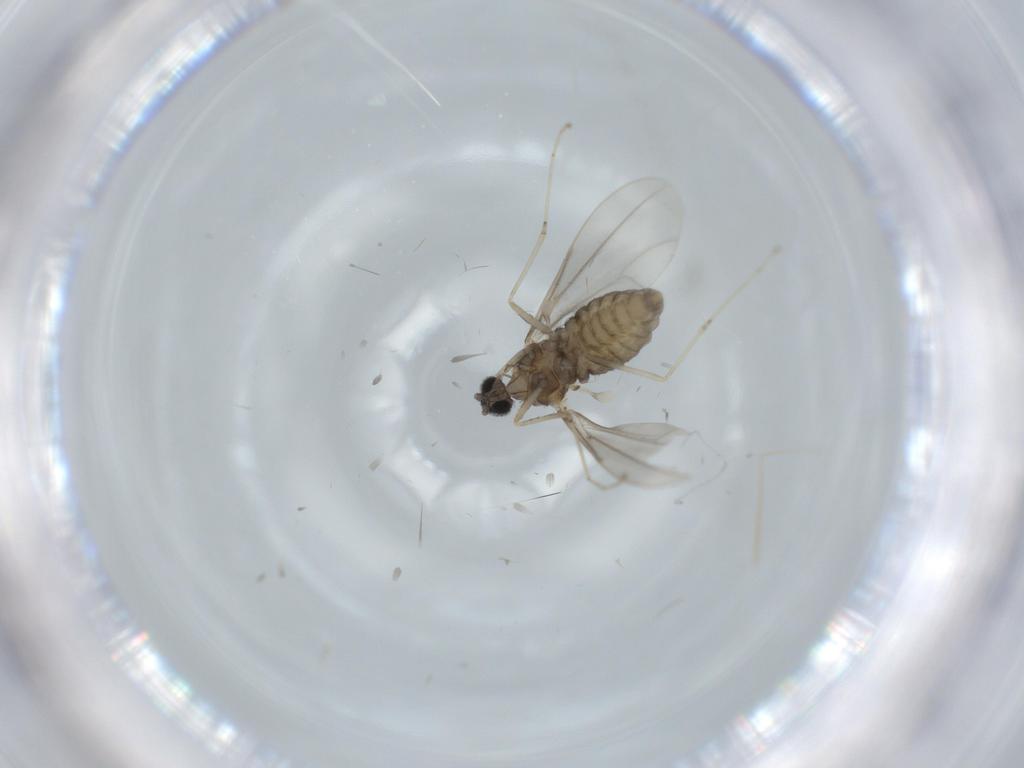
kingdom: Animalia
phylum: Arthropoda
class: Insecta
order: Diptera
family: Cecidomyiidae
